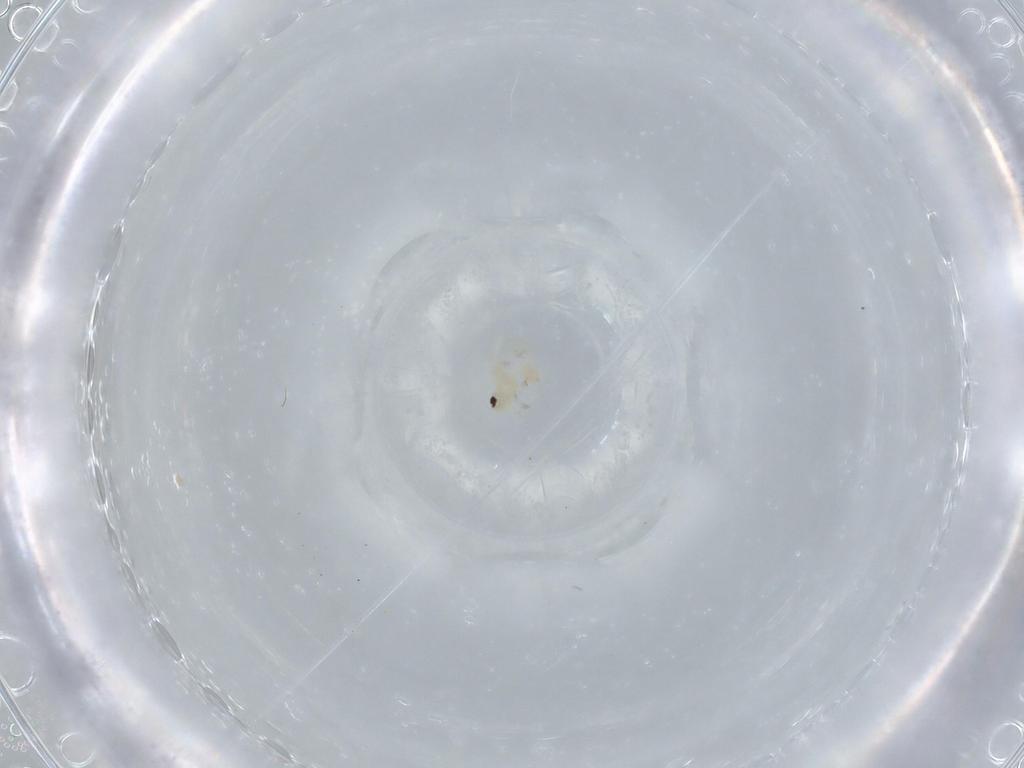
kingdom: Animalia
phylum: Arthropoda
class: Insecta
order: Hemiptera
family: Aleyrodidae
